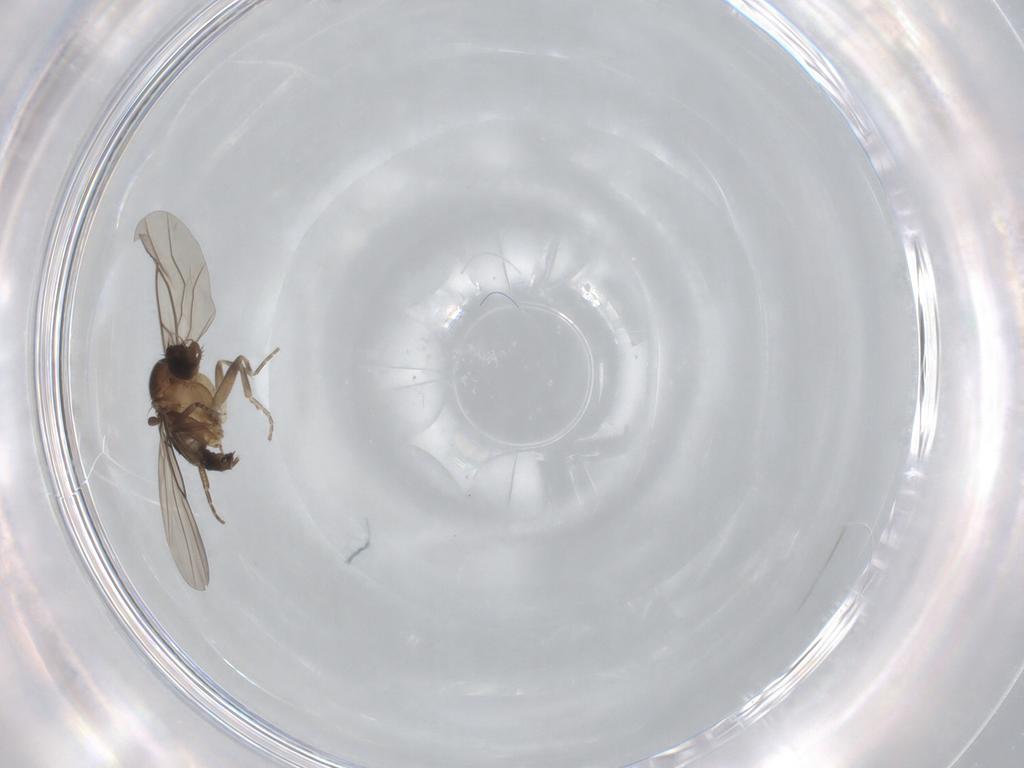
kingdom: Animalia
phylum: Arthropoda
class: Insecta
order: Diptera
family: Phoridae
